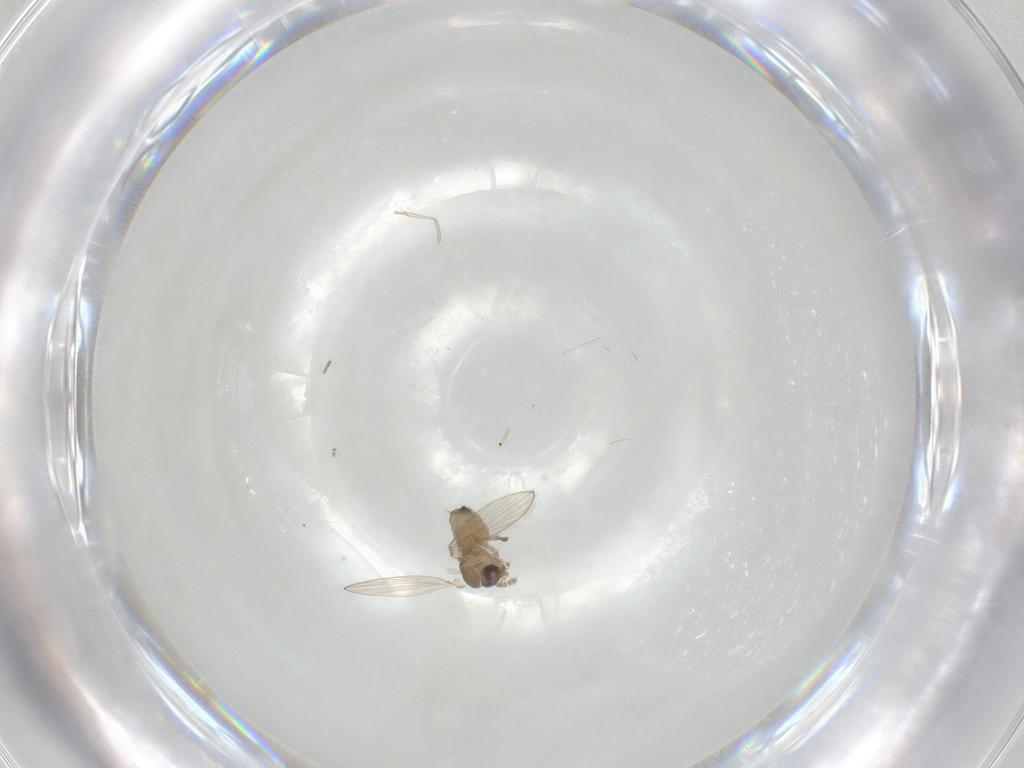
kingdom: Animalia
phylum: Arthropoda
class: Insecta
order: Diptera
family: Psychodidae
